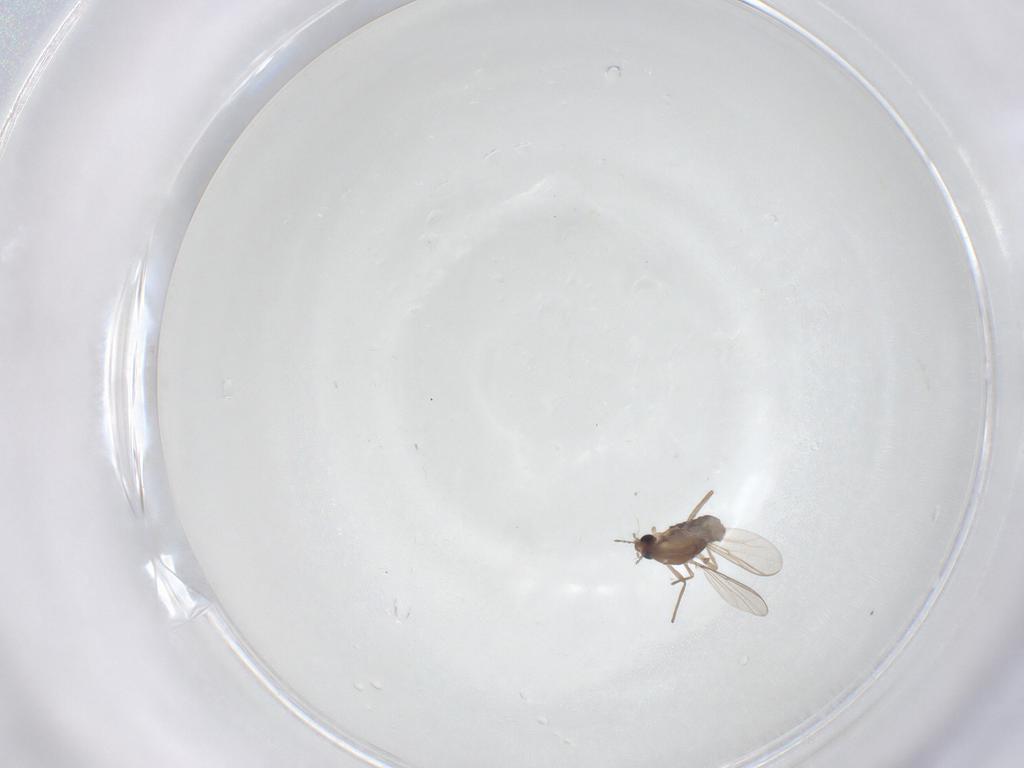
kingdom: Animalia
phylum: Arthropoda
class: Insecta
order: Diptera
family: Chironomidae
